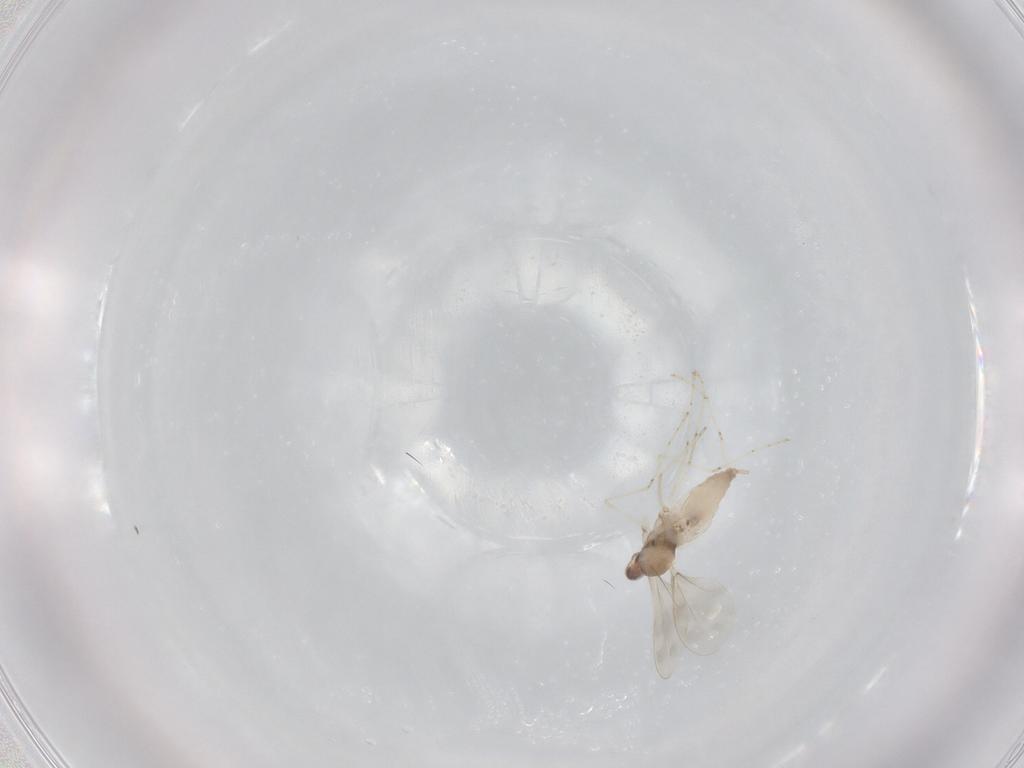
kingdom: Animalia
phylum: Arthropoda
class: Insecta
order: Diptera
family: Cecidomyiidae
